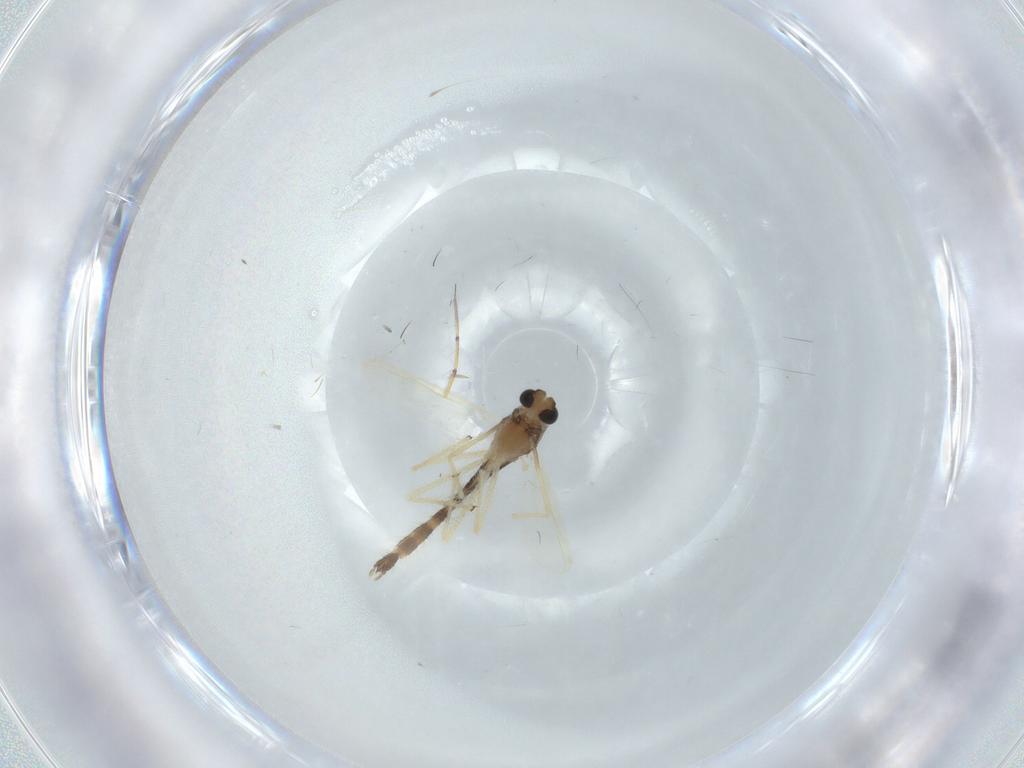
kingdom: Animalia
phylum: Arthropoda
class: Insecta
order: Diptera
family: Chironomidae
